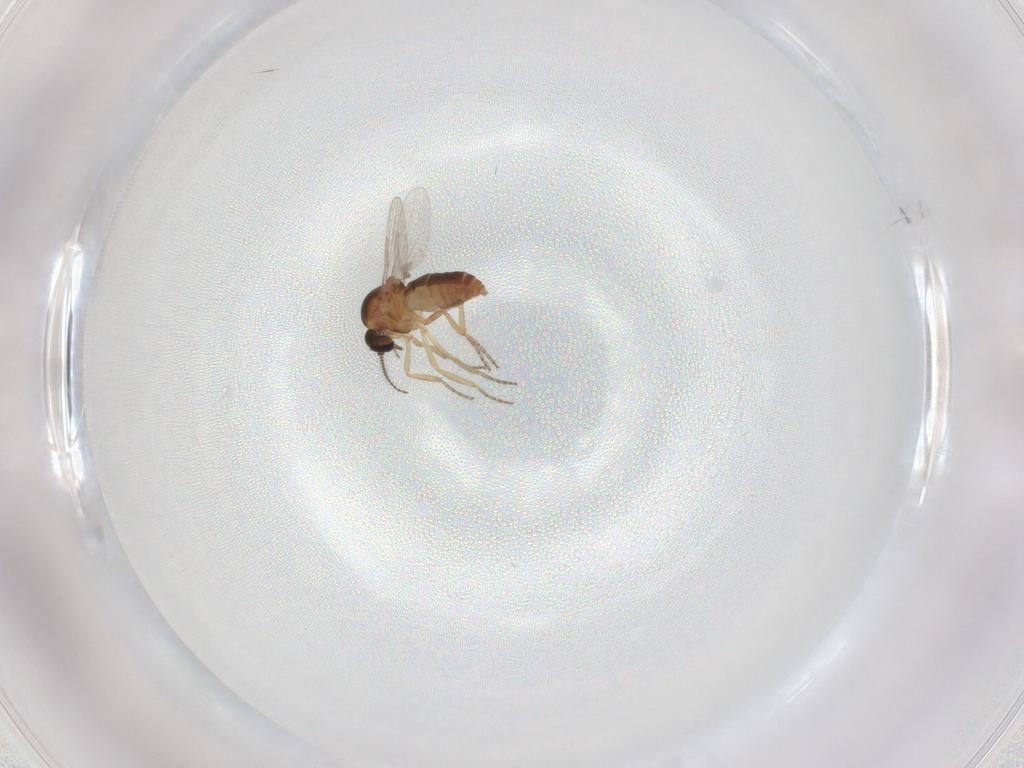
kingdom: Animalia
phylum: Arthropoda
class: Insecta
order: Diptera
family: Ceratopogonidae
